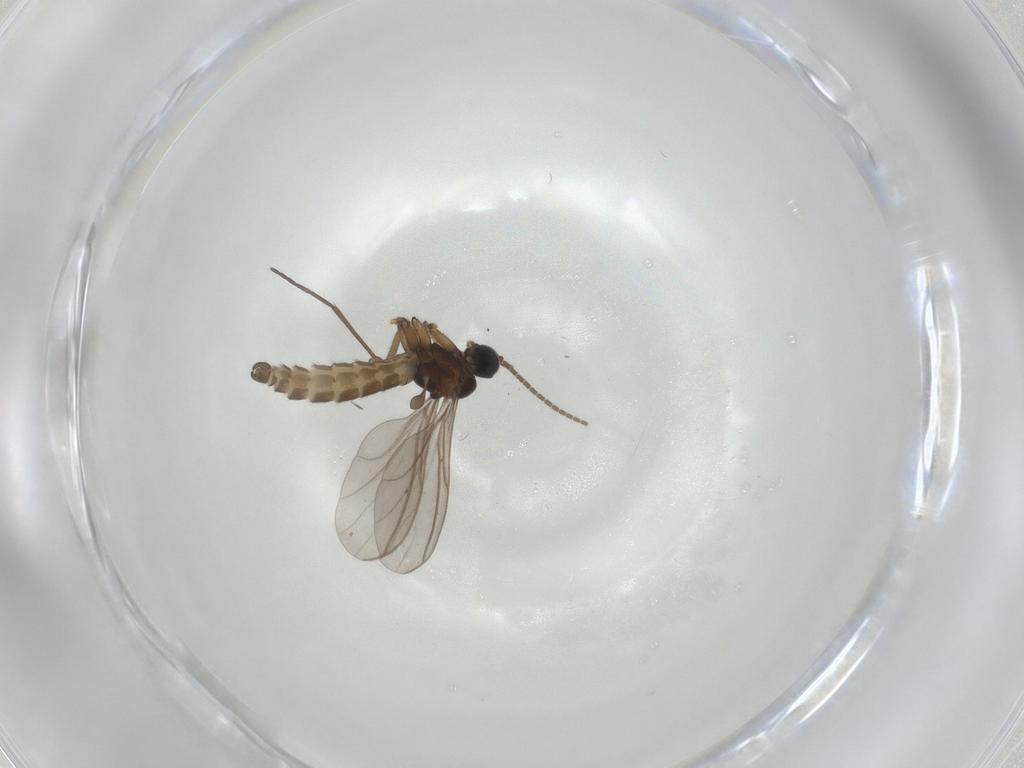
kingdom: Animalia
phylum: Arthropoda
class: Insecta
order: Diptera
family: Sciaridae
